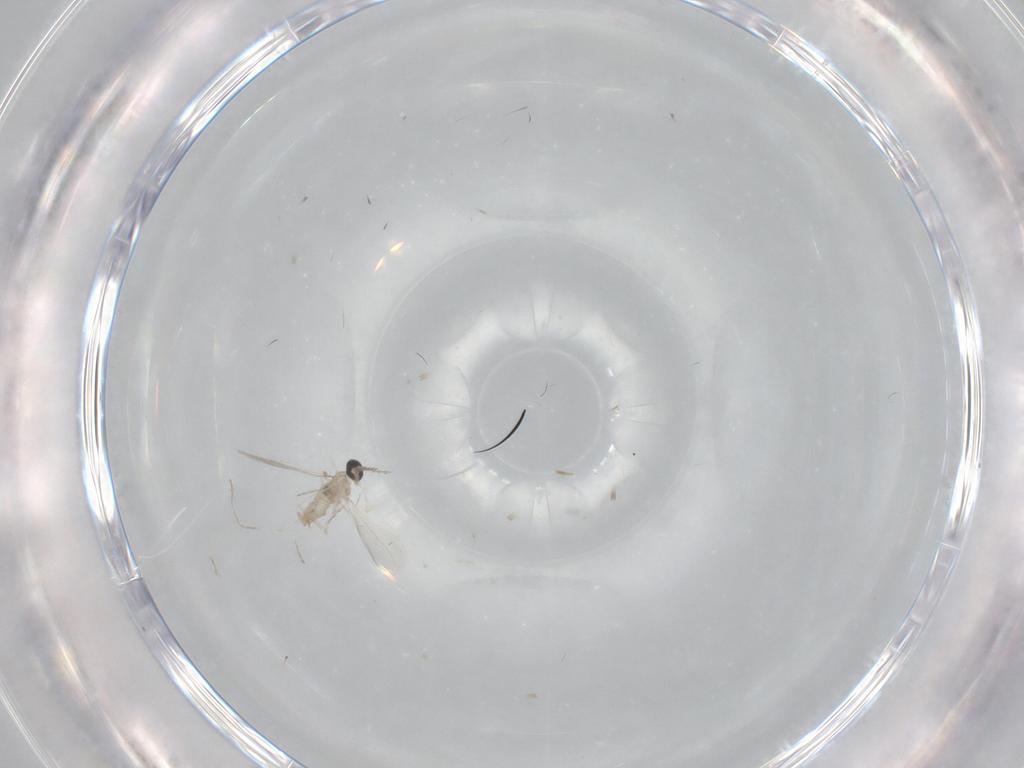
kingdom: Animalia
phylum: Arthropoda
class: Insecta
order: Diptera
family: Cecidomyiidae
